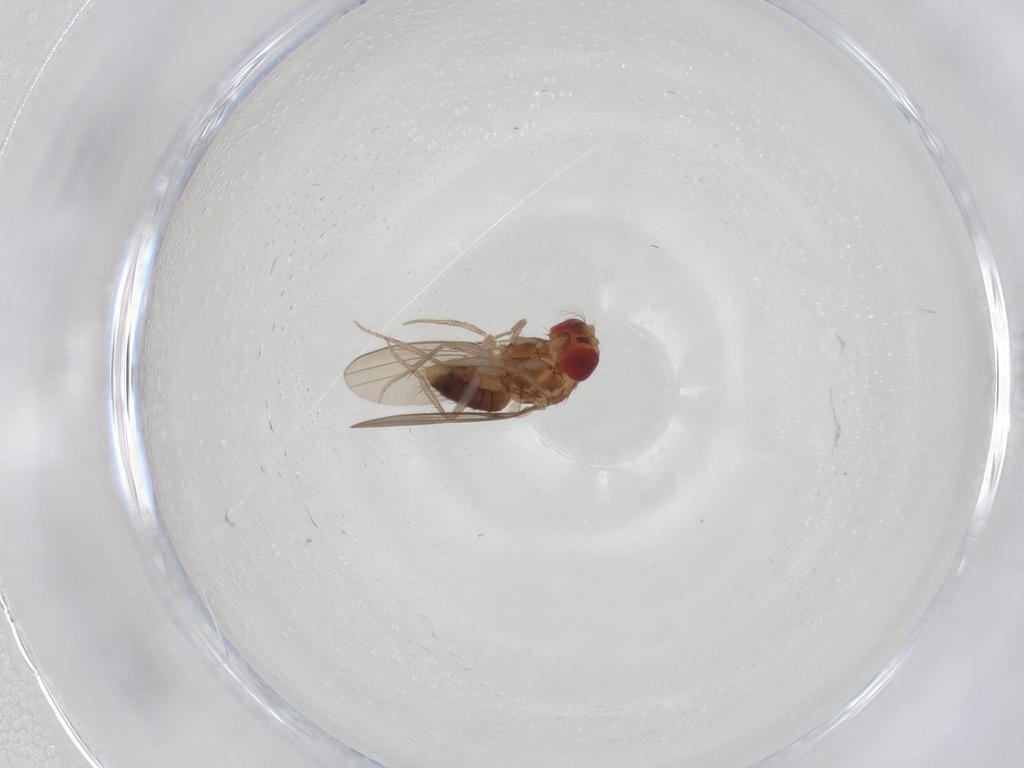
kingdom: Animalia
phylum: Arthropoda
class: Insecta
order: Diptera
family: Drosophilidae
